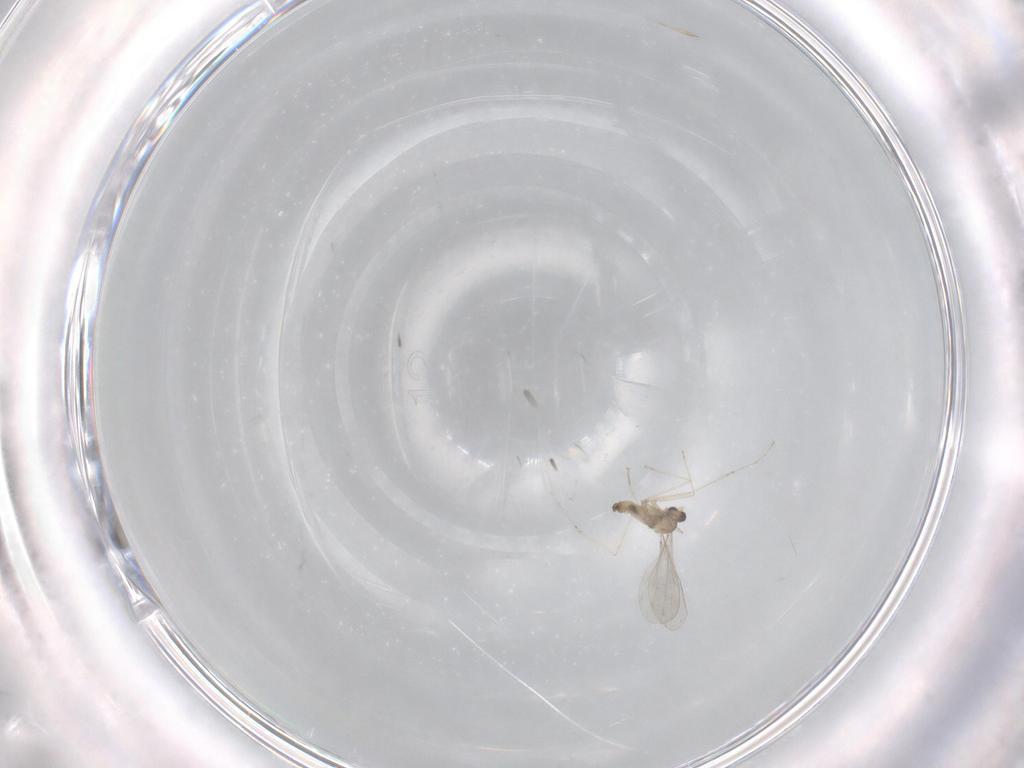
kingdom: Animalia
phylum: Arthropoda
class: Insecta
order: Diptera
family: Cecidomyiidae
